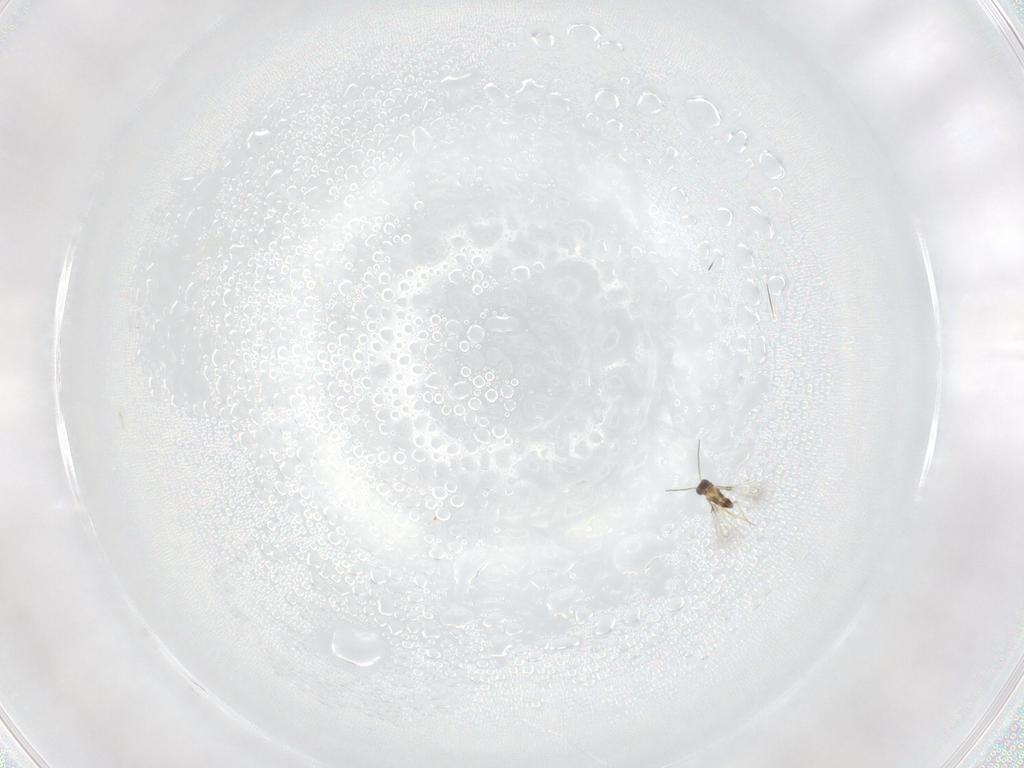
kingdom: Animalia
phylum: Arthropoda
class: Insecta
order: Hymenoptera
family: Mymaridae
